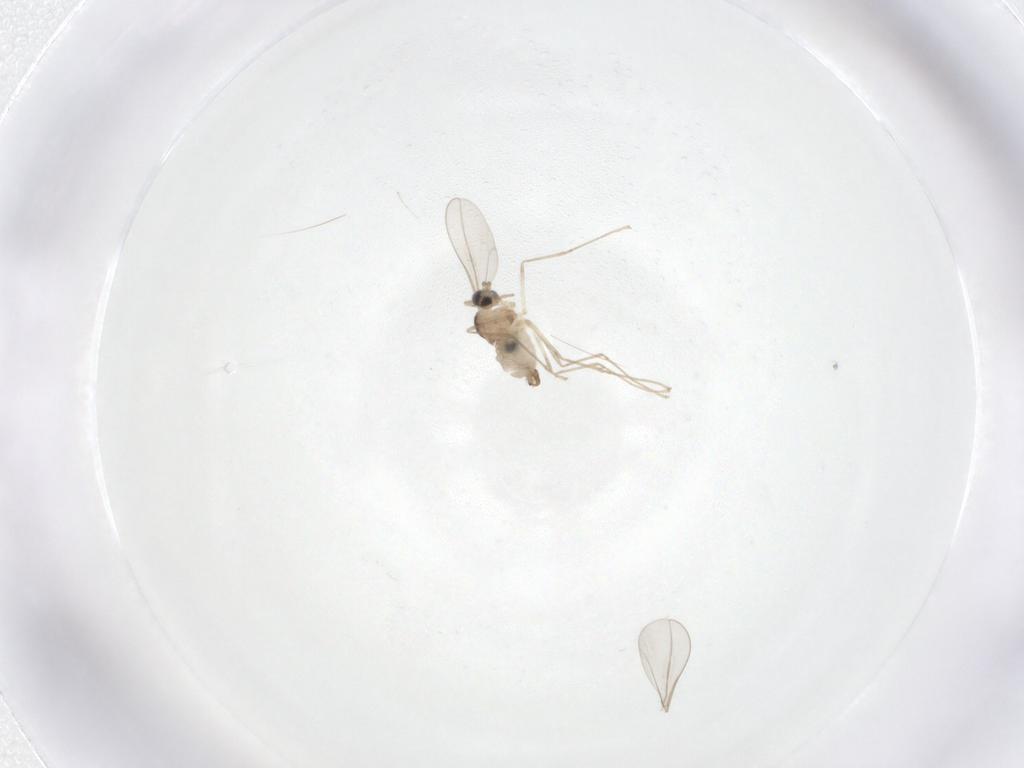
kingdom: Animalia
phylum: Arthropoda
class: Insecta
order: Diptera
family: Cecidomyiidae
